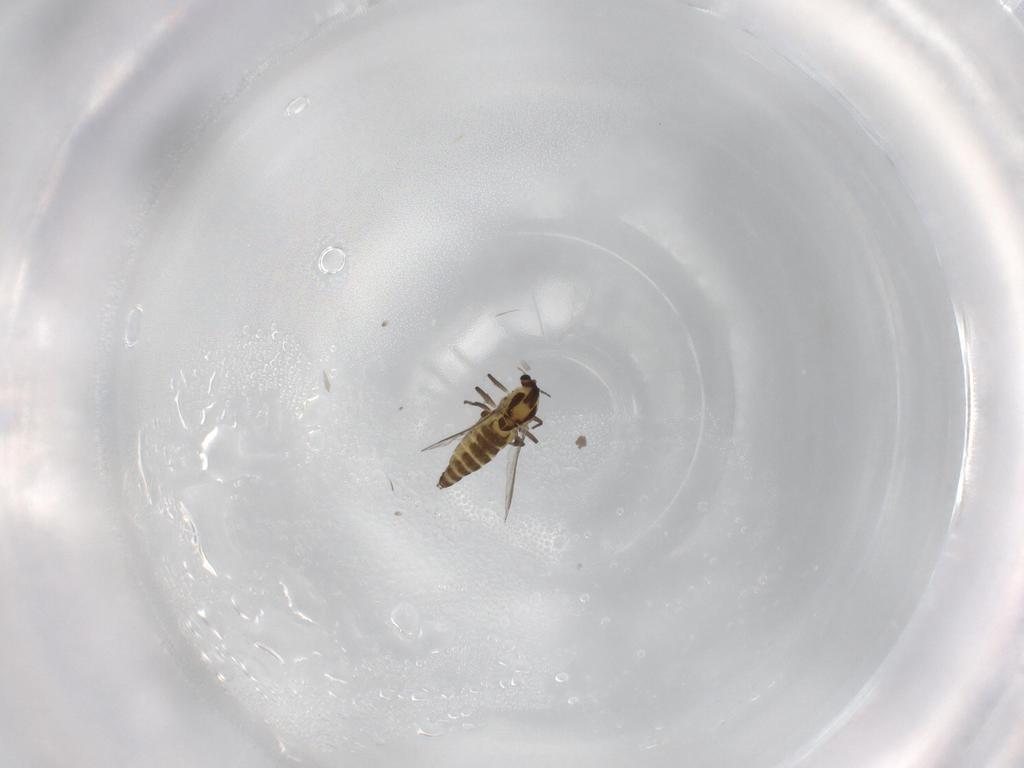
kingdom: Animalia
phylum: Arthropoda
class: Insecta
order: Diptera
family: Chironomidae
